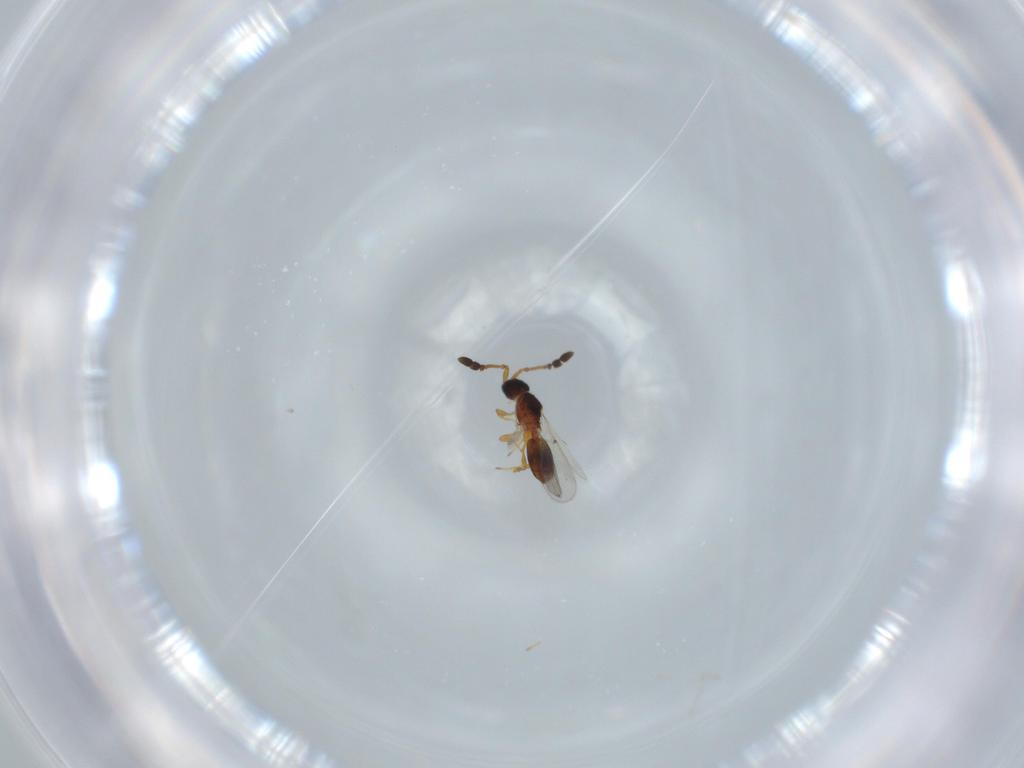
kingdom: Animalia
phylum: Arthropoda
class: Insecta
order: Hymenoptera
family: Diapriidae
